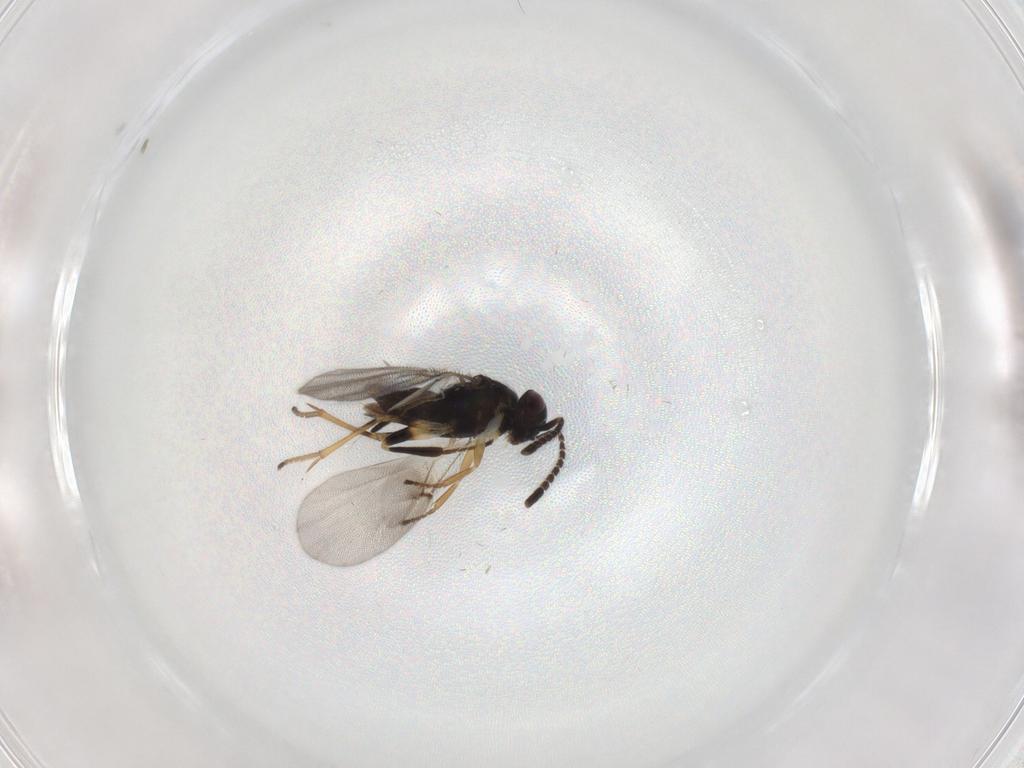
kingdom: Animalia
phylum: Arthropoda
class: Insecta
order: Hymenoptera
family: Encyrtidae
